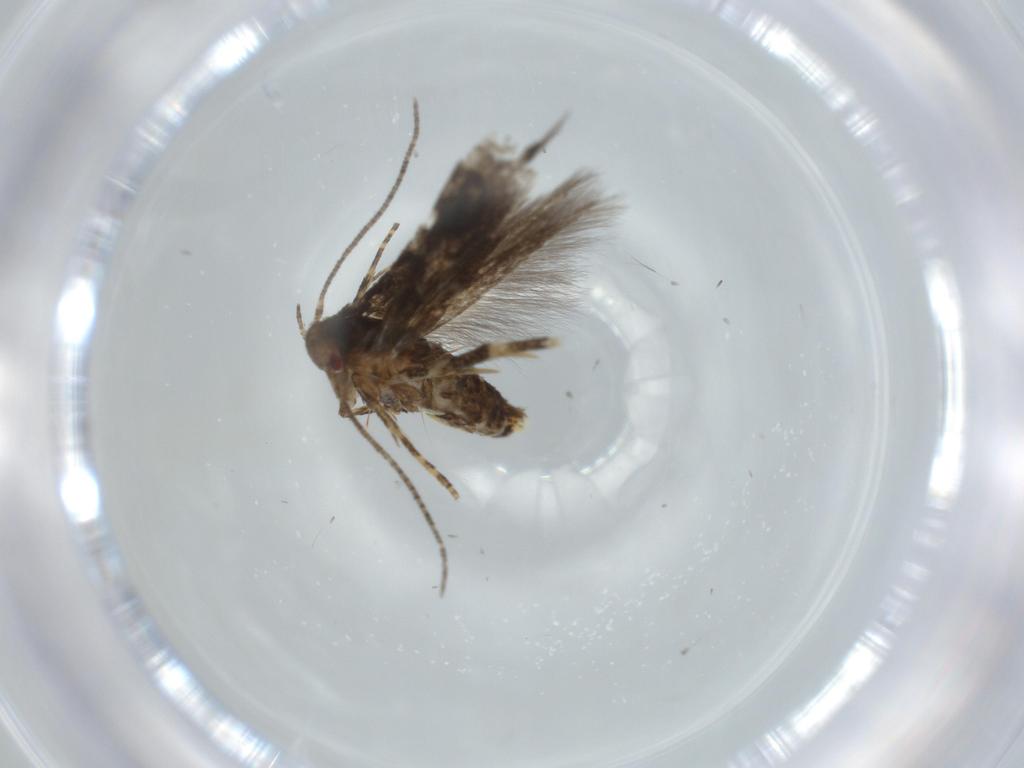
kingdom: Animalia
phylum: Arthropoda
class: Insecta
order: Lepidoptera
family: Momphidae
